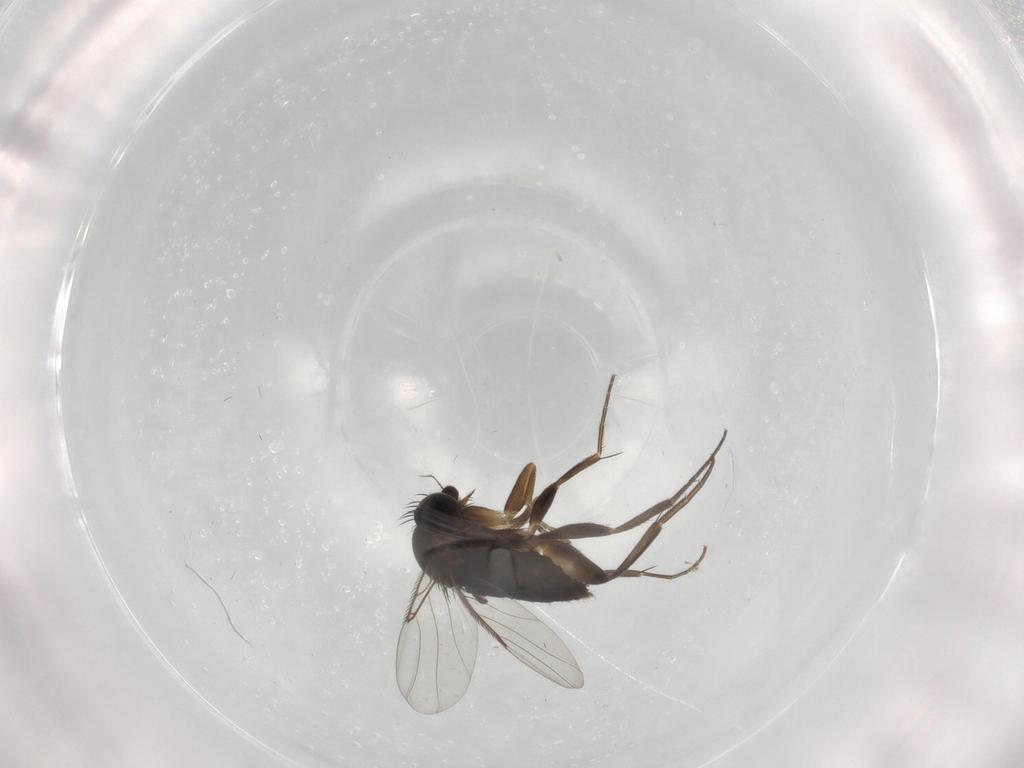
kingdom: Animalia
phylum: Arthropoda
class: Insecta
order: Diptera
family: Phoridae
